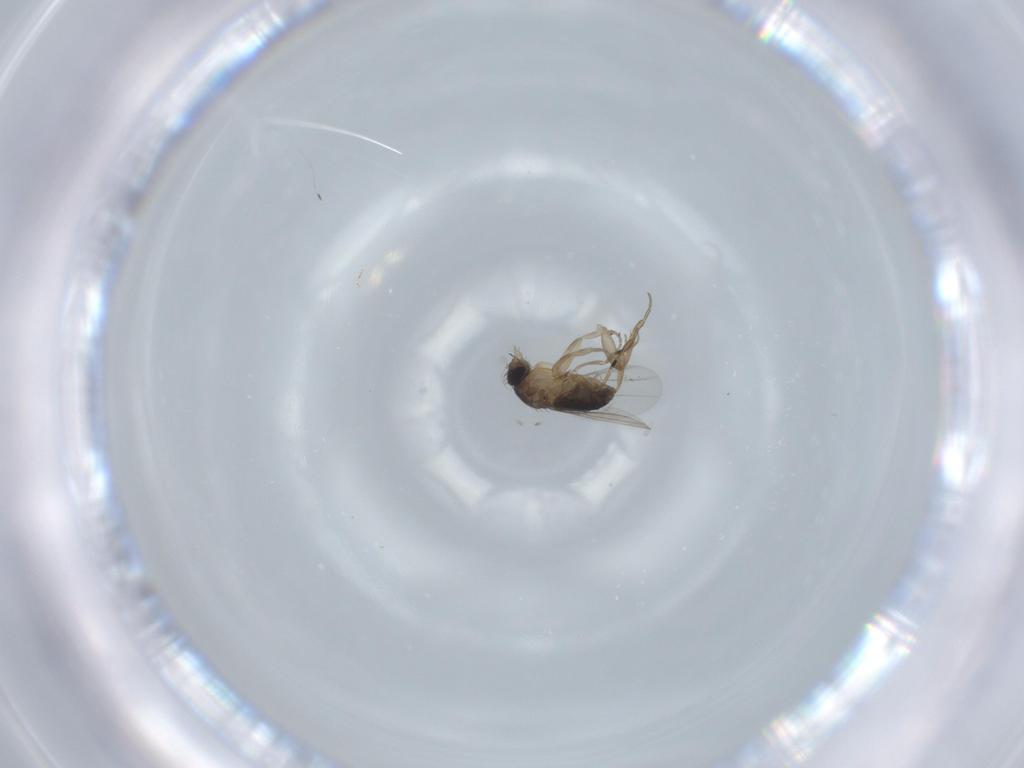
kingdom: Animalia
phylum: Arthropoda
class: Insecta
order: Diptera
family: Phoridae
